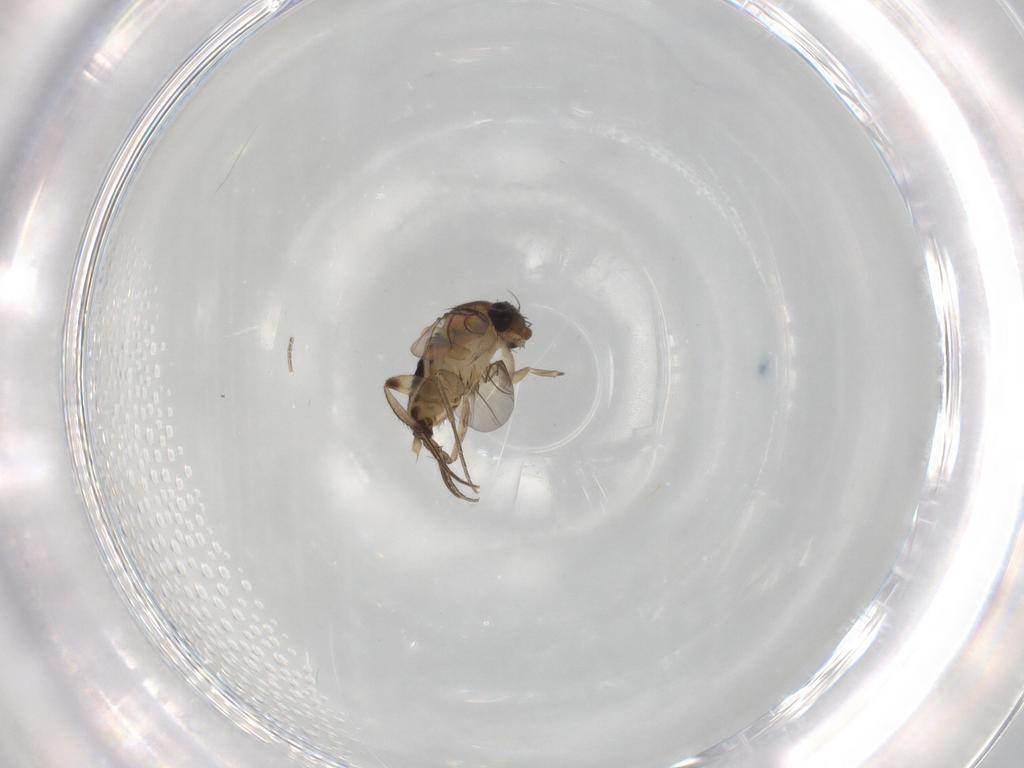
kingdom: Animalia
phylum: Arthropoda
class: Insecta
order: Diptera
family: Phoridae
